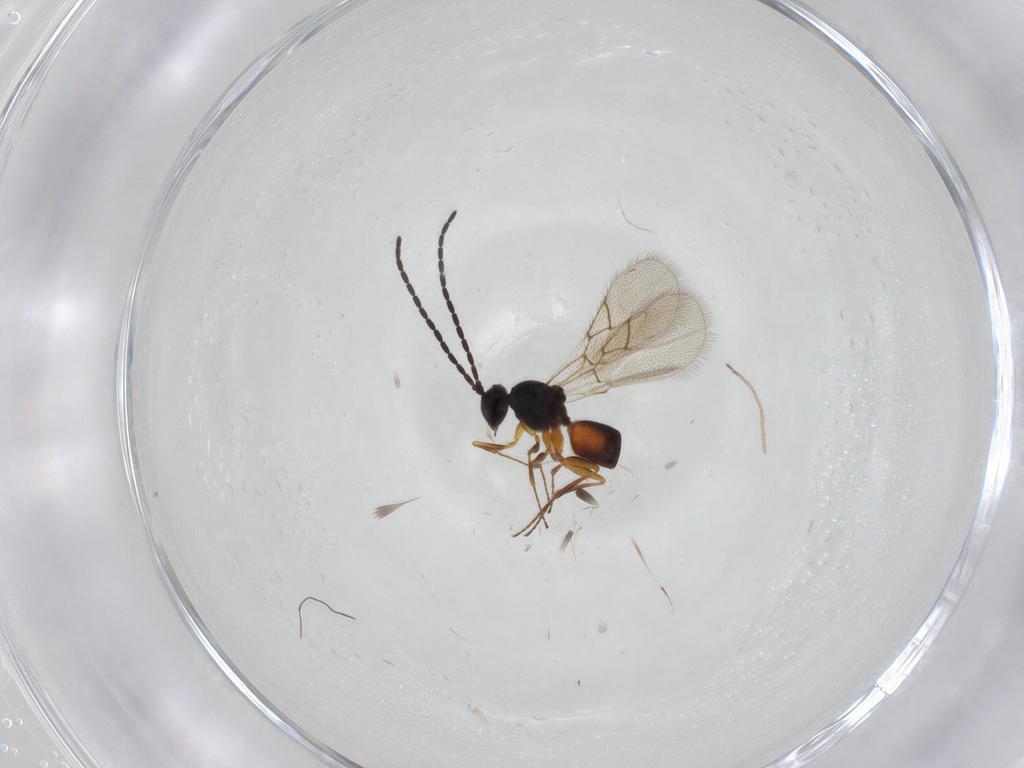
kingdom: Animalia
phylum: Arthropoda
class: Insecta
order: Hymenoptera
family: Figitidae
